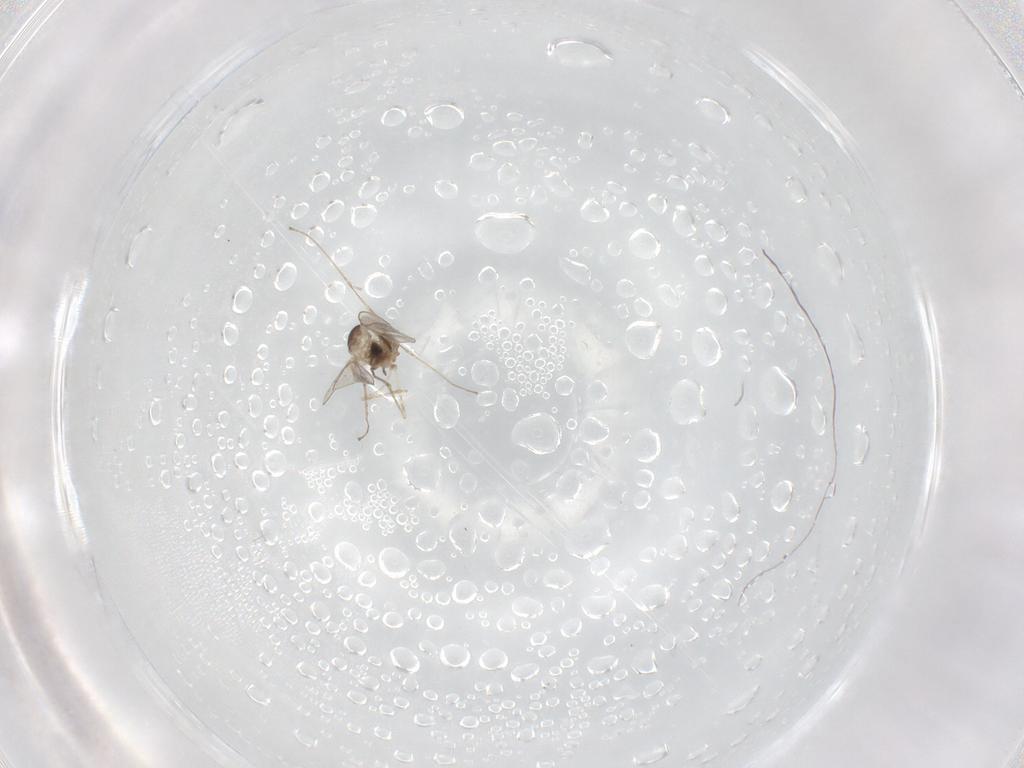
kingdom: Animalia
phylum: Arthropoda
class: Insecta
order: Diptera
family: Cecidomyiidae
